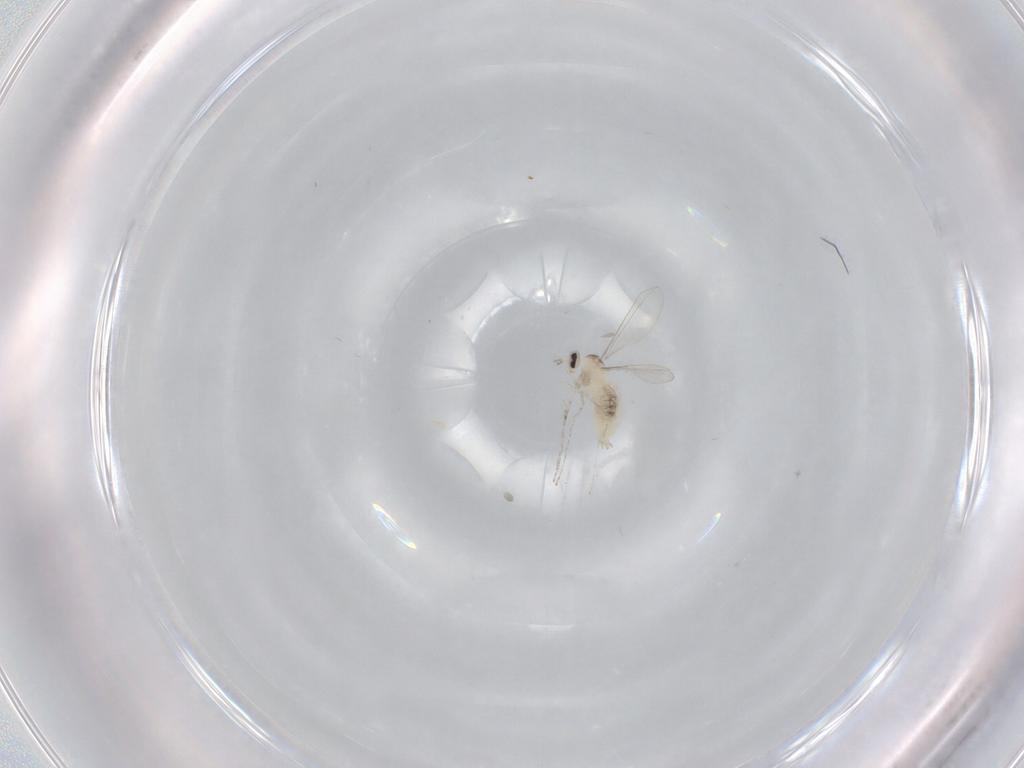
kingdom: Animalia
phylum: Arthropoda
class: Insecta
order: Diptera
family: Cecidomyiidae
